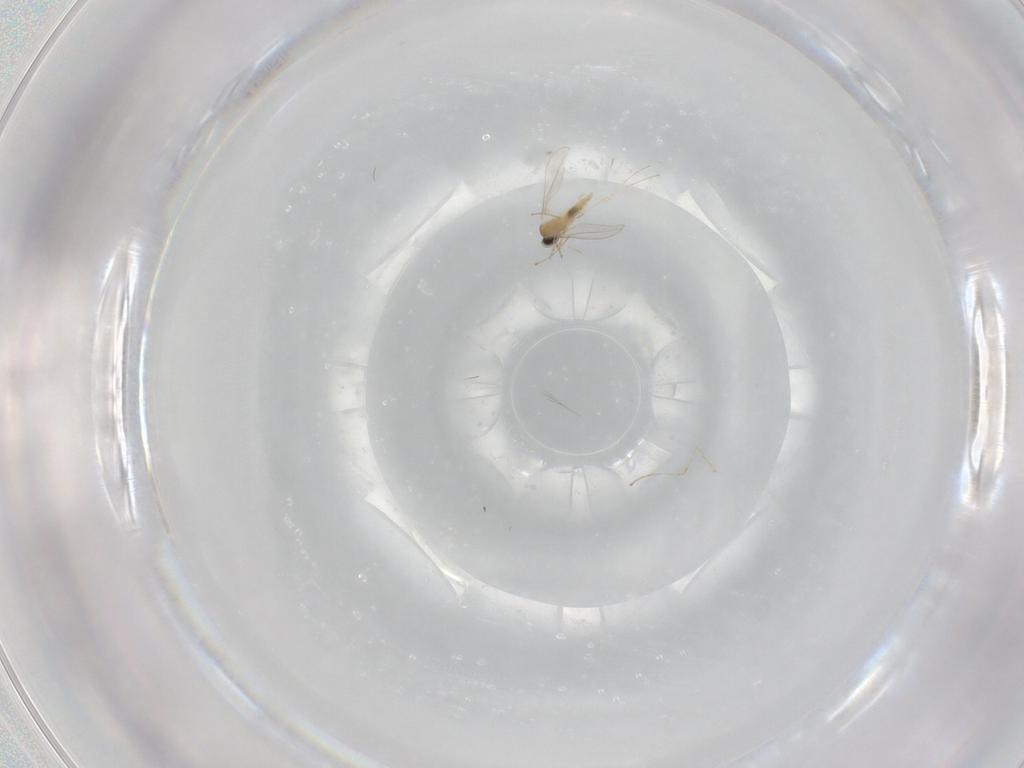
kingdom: Animalia
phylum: Arthropoda
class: Insecta
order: Diptera
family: Cecidomyiidae
